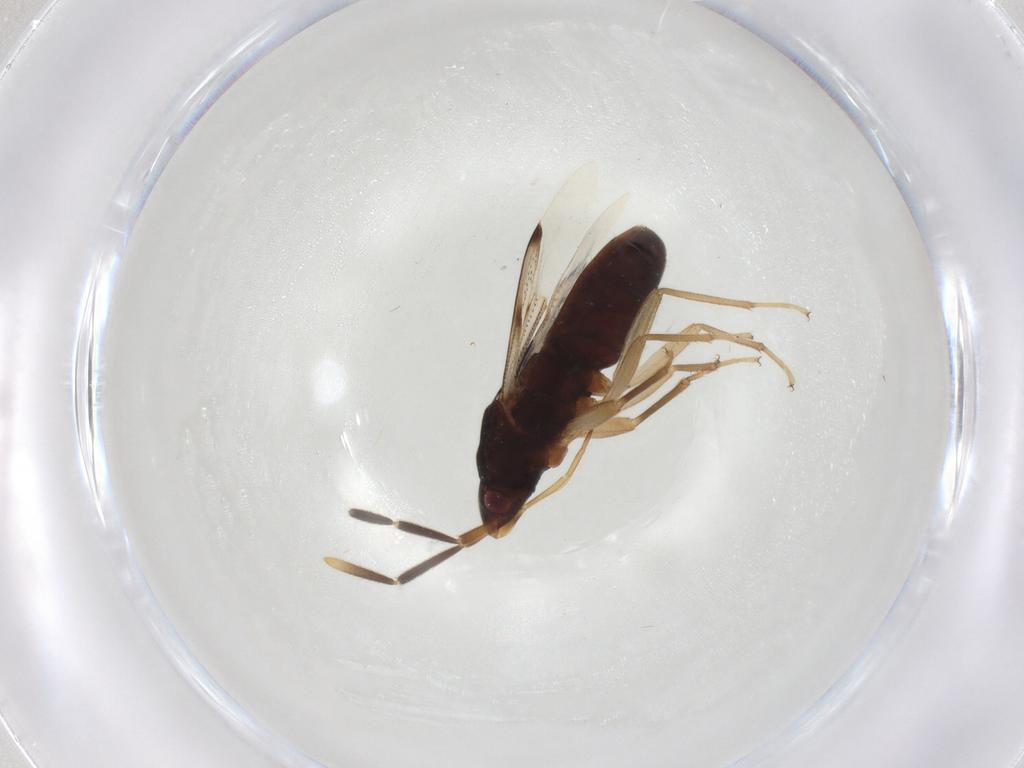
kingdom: Animalia
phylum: Arthropoda
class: Insecta
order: Hemiptera
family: Rhyparochromidae
